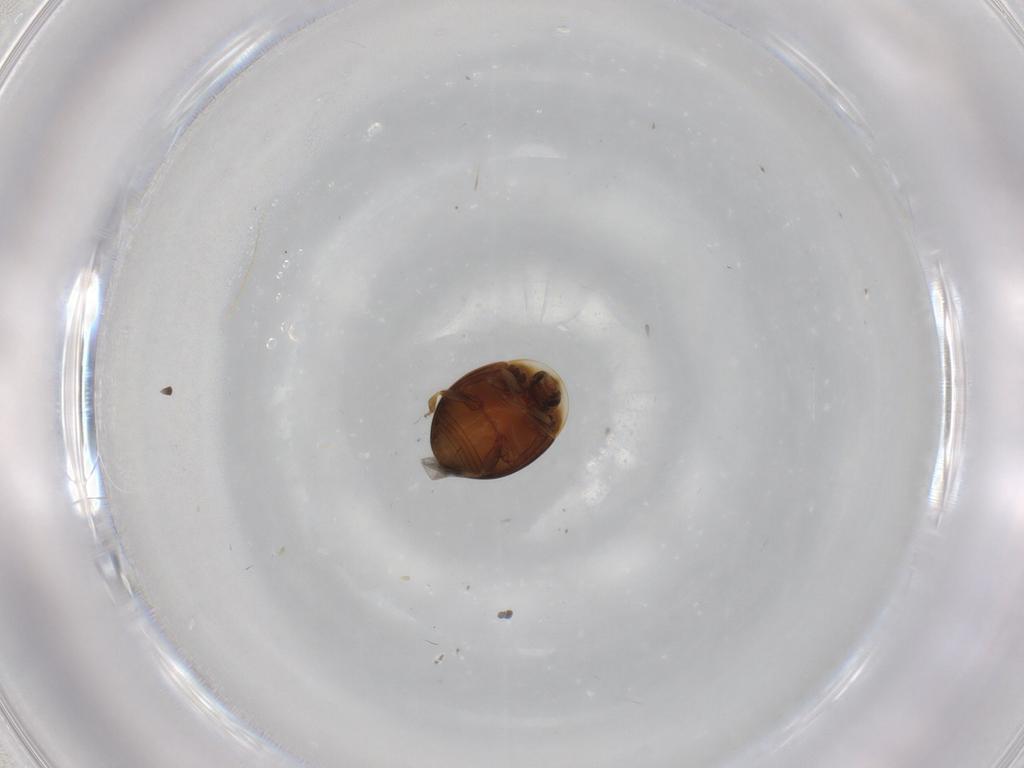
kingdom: Animalia
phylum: Arthropoda
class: Insecta
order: Coleoptera
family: Corylophidae
